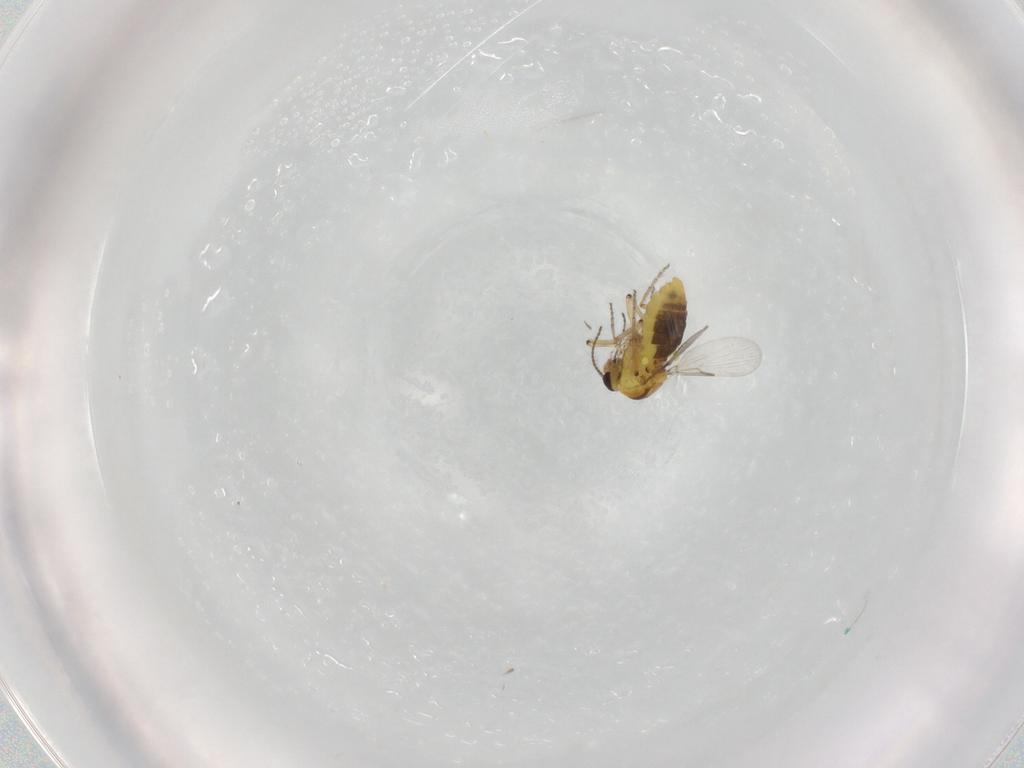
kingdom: Animalia
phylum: Arthropoda
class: Insecta
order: Diptera
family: Ceratopogonidae
